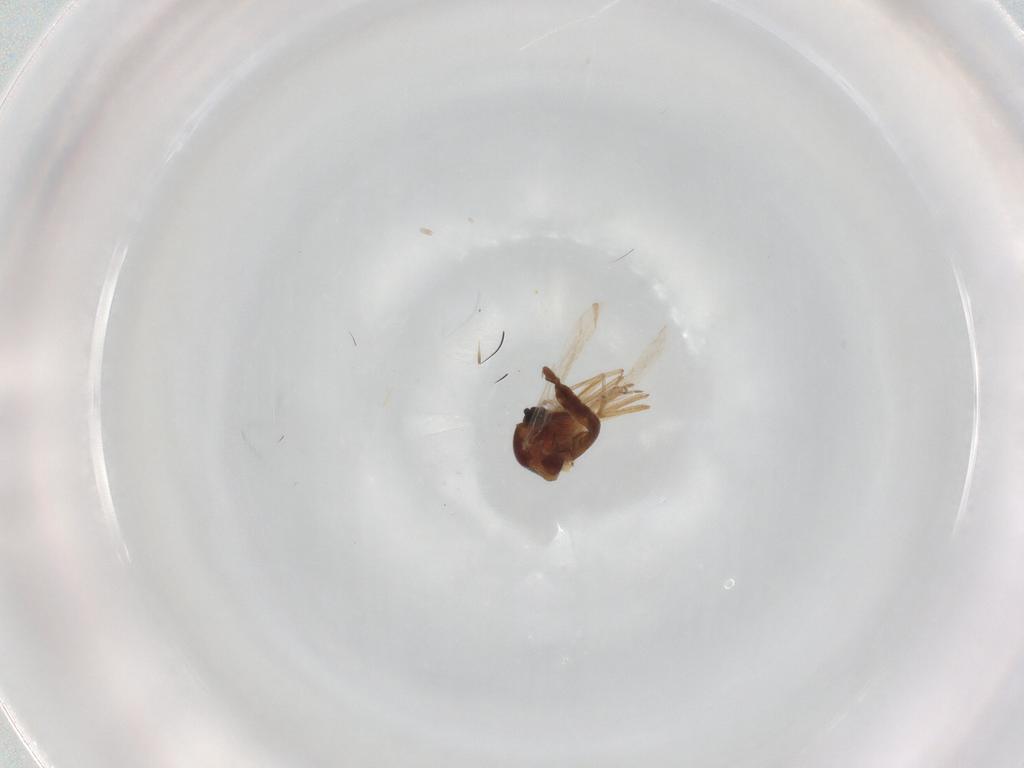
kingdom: Animalia
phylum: Arthropoda
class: Insecta
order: Diptera
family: Ceratopogonidae
